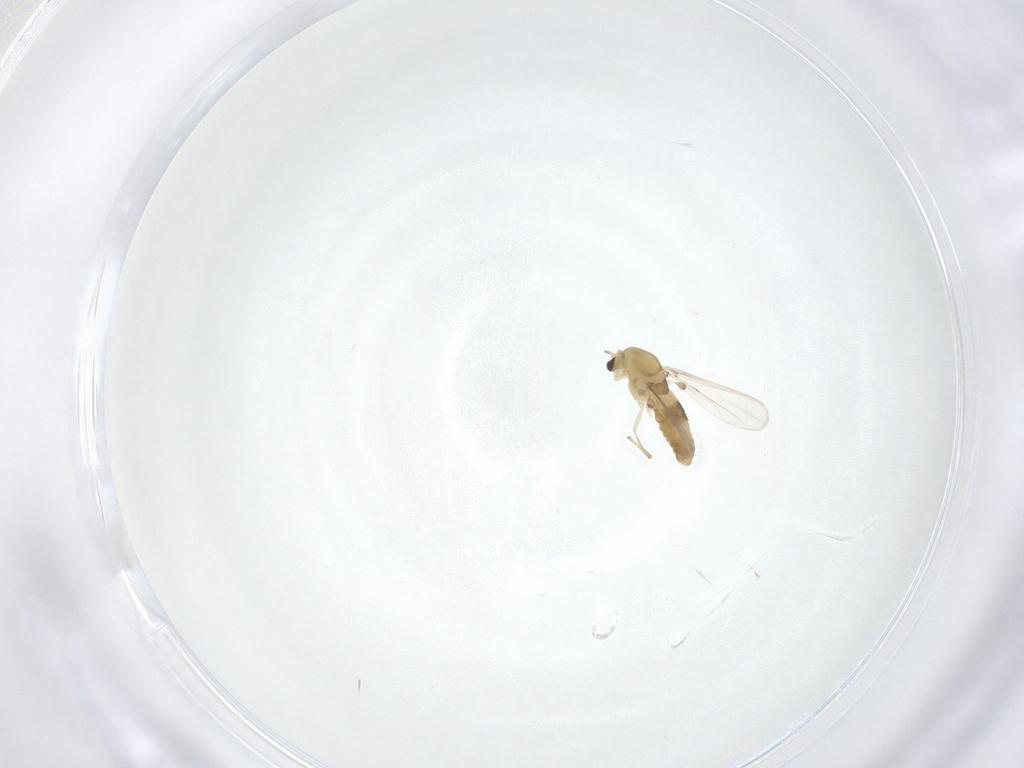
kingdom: Animalia
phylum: Arthropoda
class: Insecta
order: Diptera
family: Chironomidae
